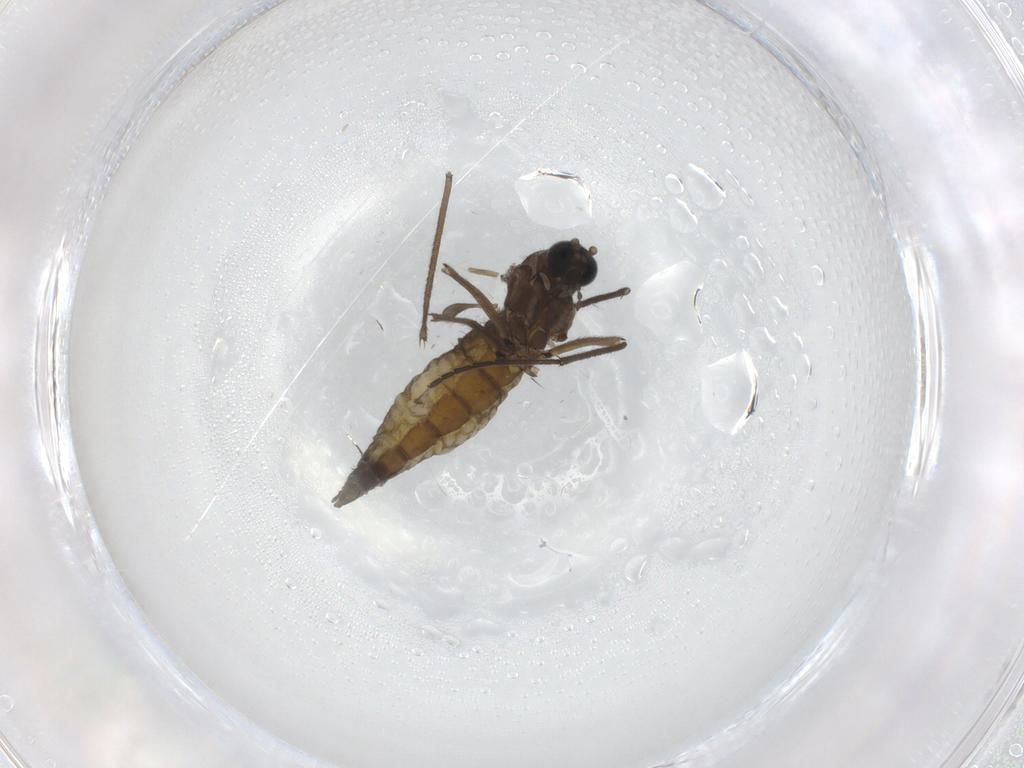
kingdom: Animalia
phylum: Arthropoda
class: Insecta
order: Diptera
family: Sciaridae
